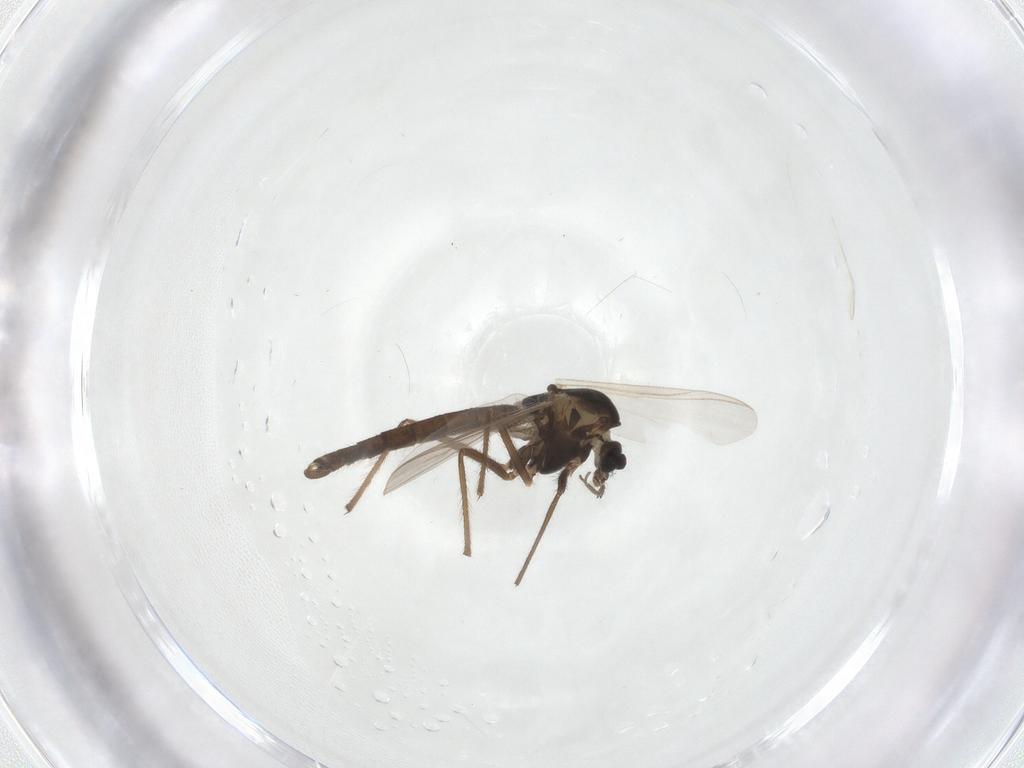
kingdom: Animalia
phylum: Arthropoda
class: Insecta
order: Diptera
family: Chironomidae
